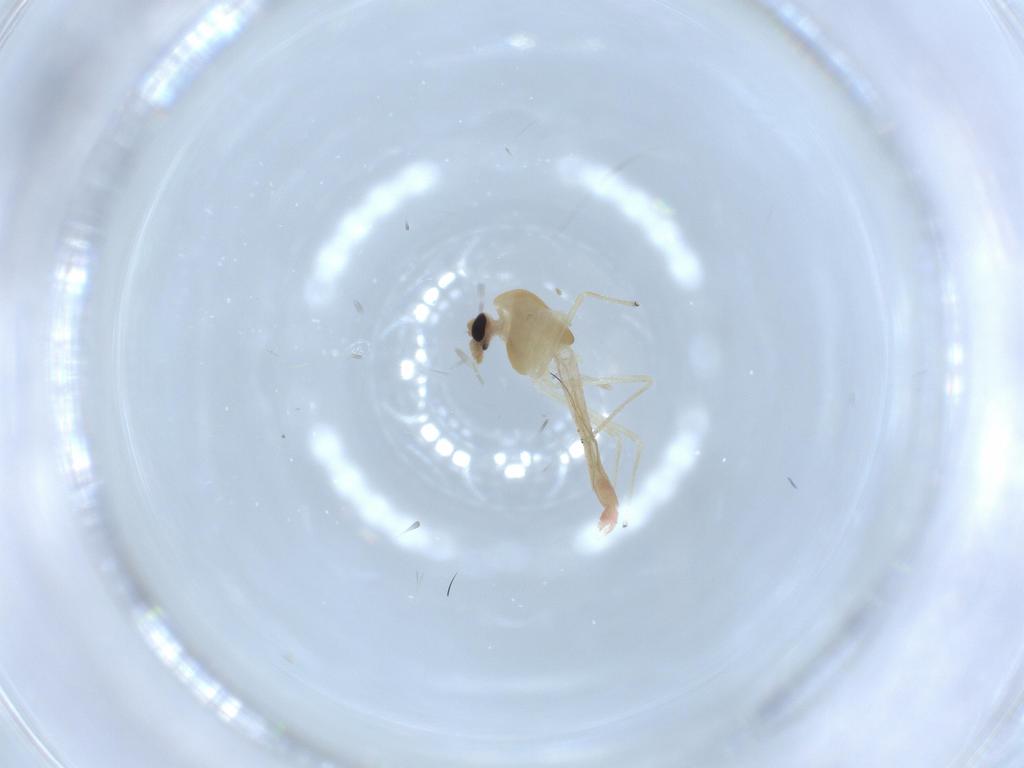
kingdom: Animalia
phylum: Arthropoda
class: Insecta
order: Diptera
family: Chironomidae
